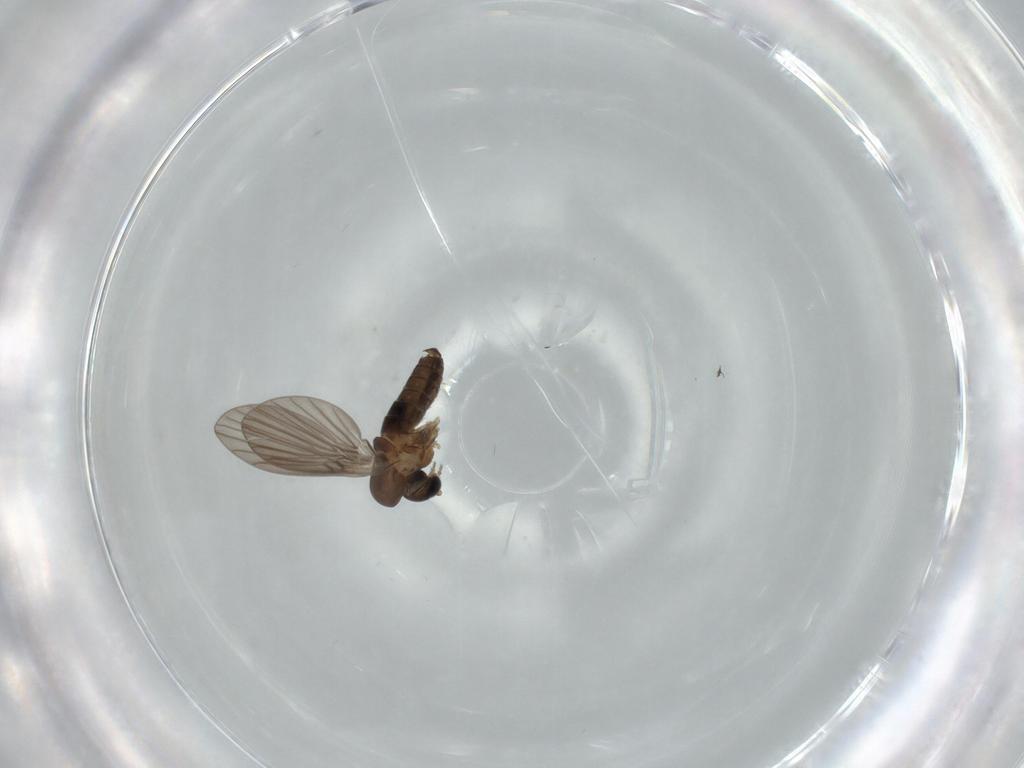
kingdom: Animalia
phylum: Arthropoda
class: Insecta
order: Diptera
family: Psychodidae
